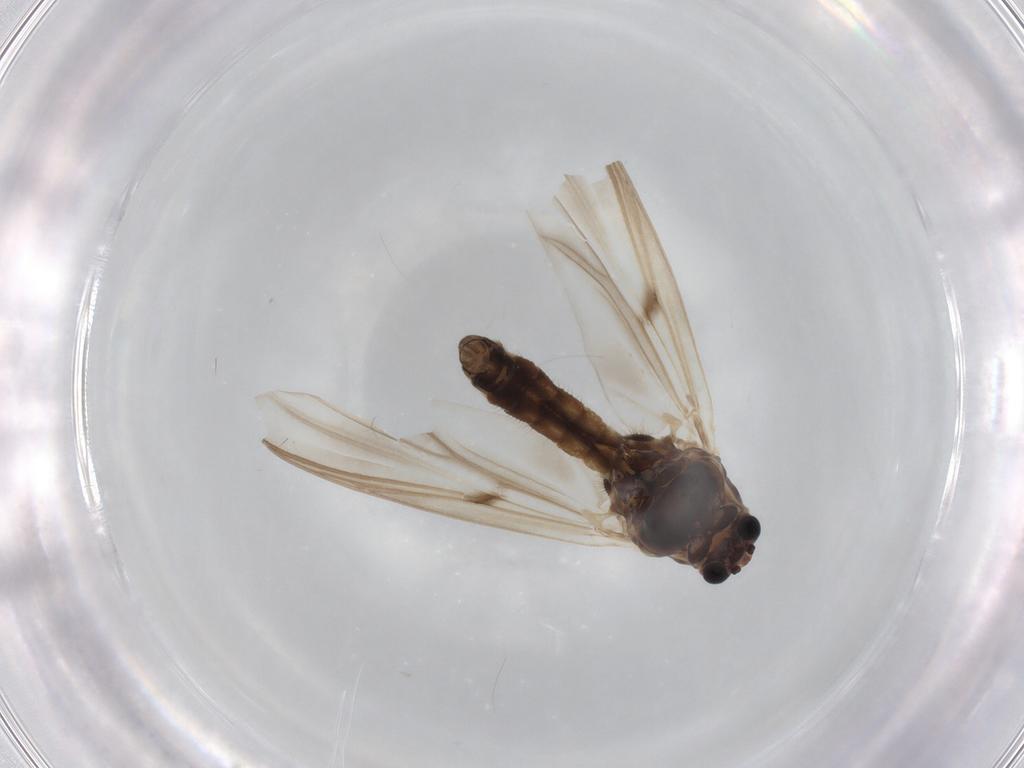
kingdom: Animalia
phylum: Arthropoda
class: Insecta
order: Diptera
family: Chironomidae
